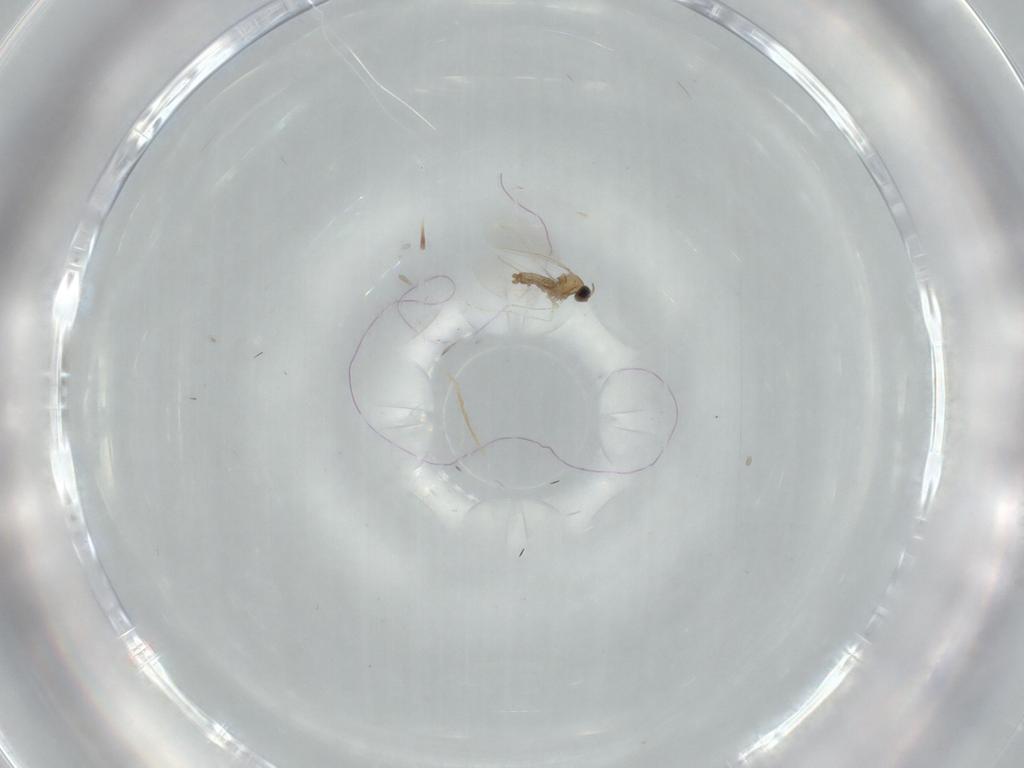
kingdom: Animalia
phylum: Arthropoda
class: Insecta
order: Diptera
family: Cecidomyiidae
